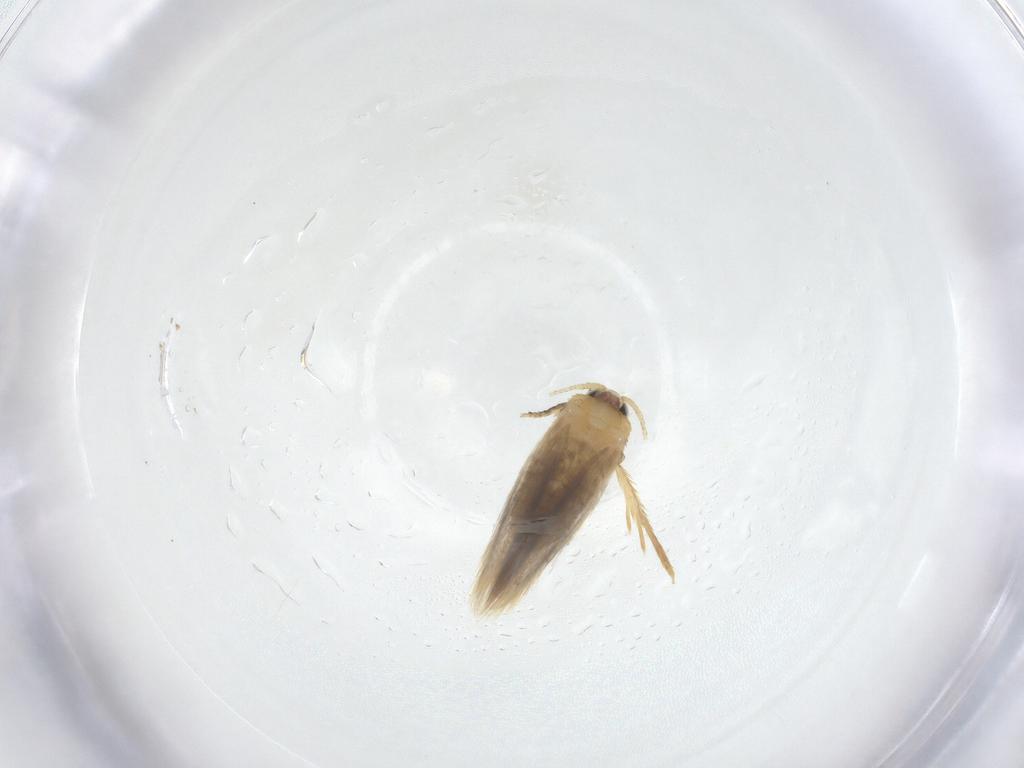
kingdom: Animalia
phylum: Arthropoda
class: Insecta
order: Lepidoptera
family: Nepticulidae
